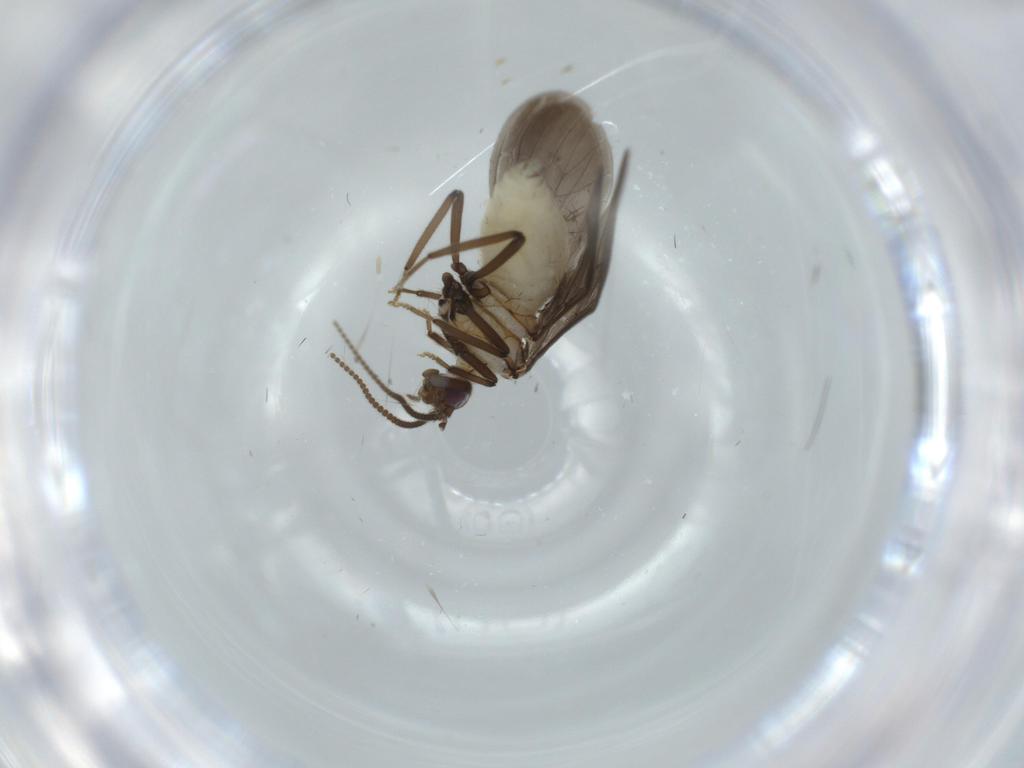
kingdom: Animalia
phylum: Arthropoda
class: Insecta
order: Neuroptera
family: Coniopterygidae
